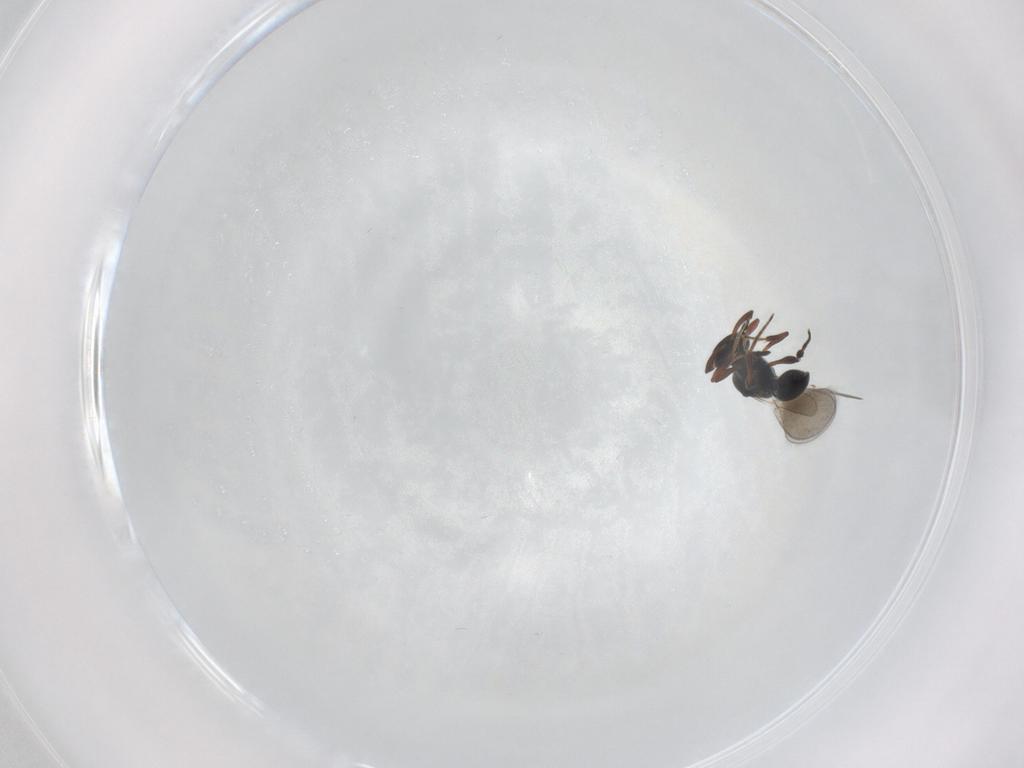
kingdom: Animalia
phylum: Arthropoda
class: Insecta
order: Hymenoptera
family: Platygastridae
